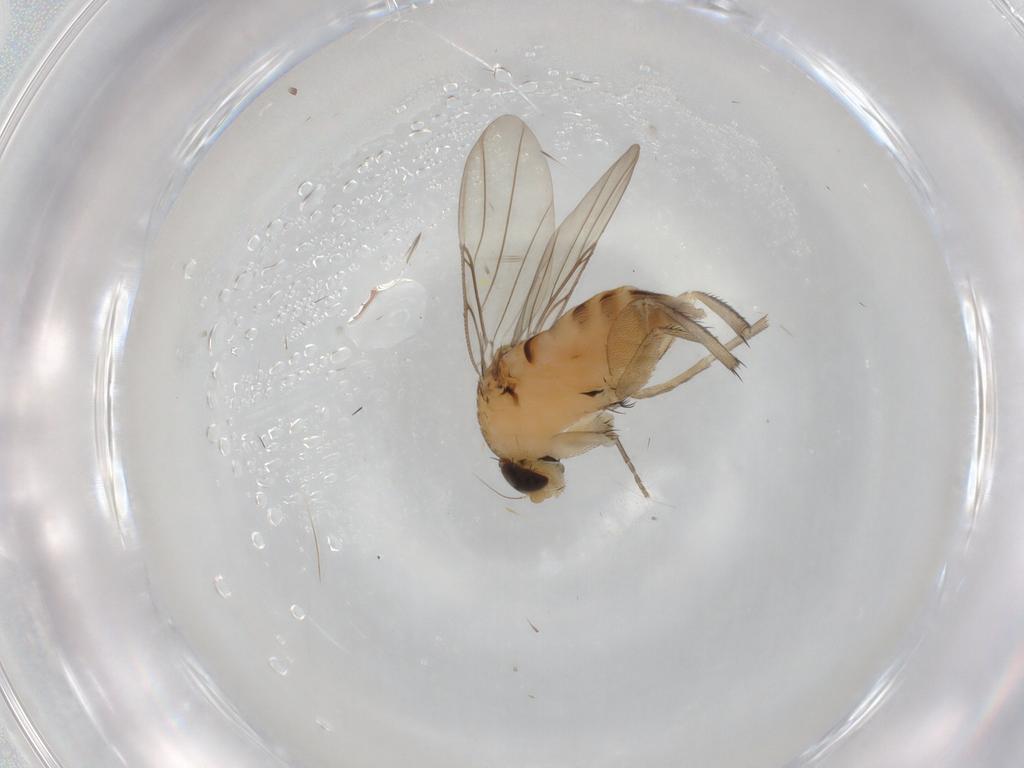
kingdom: Animalia
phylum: Arthropoda
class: Insecta
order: Diptera
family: Phoridae
